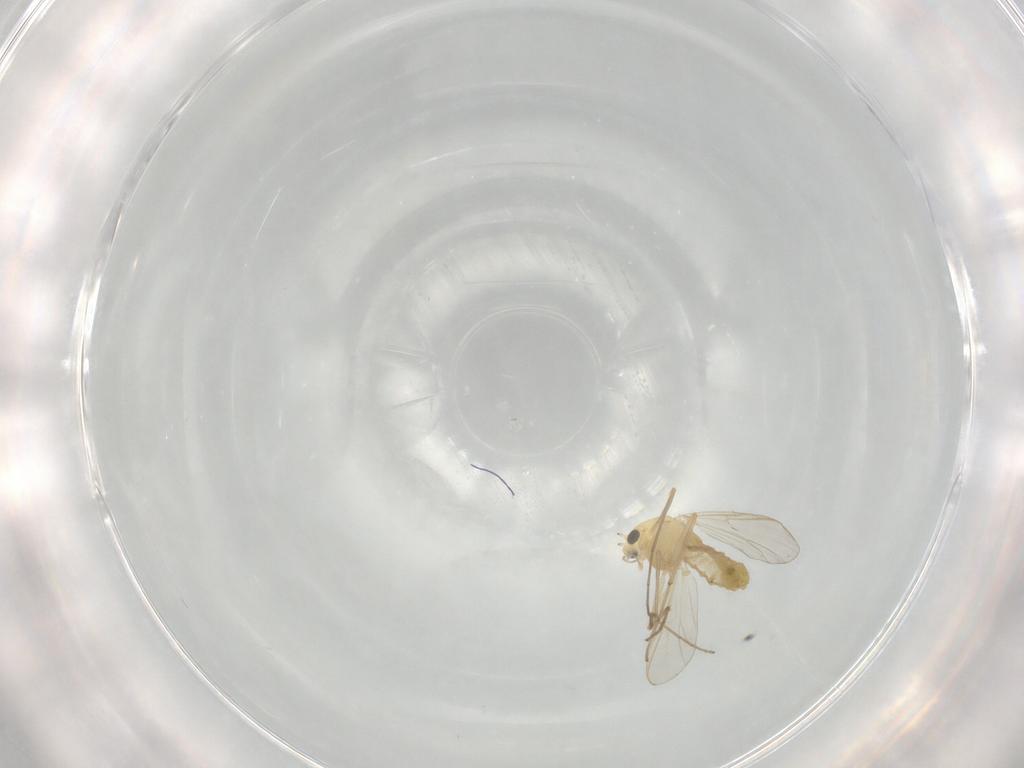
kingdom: Animalia
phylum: Arthropoda
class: Insecta
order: Diptera
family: Chironomidae
